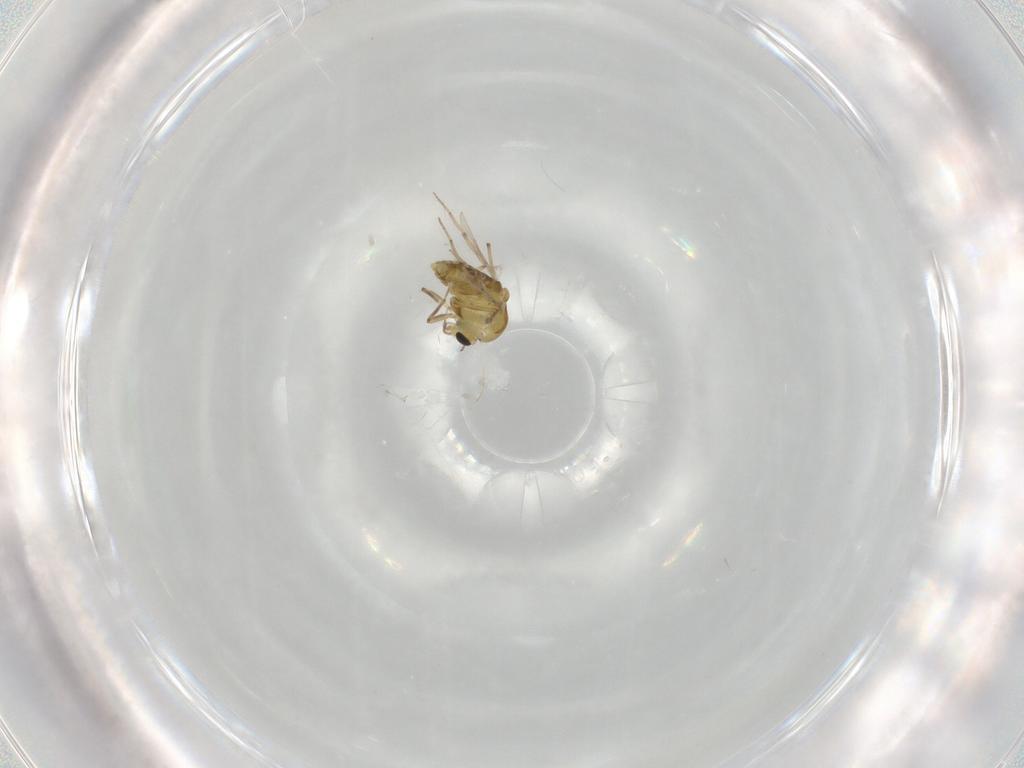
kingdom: Animalia
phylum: Arthropoda
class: Insecta
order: Diptera
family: Chironomidae
